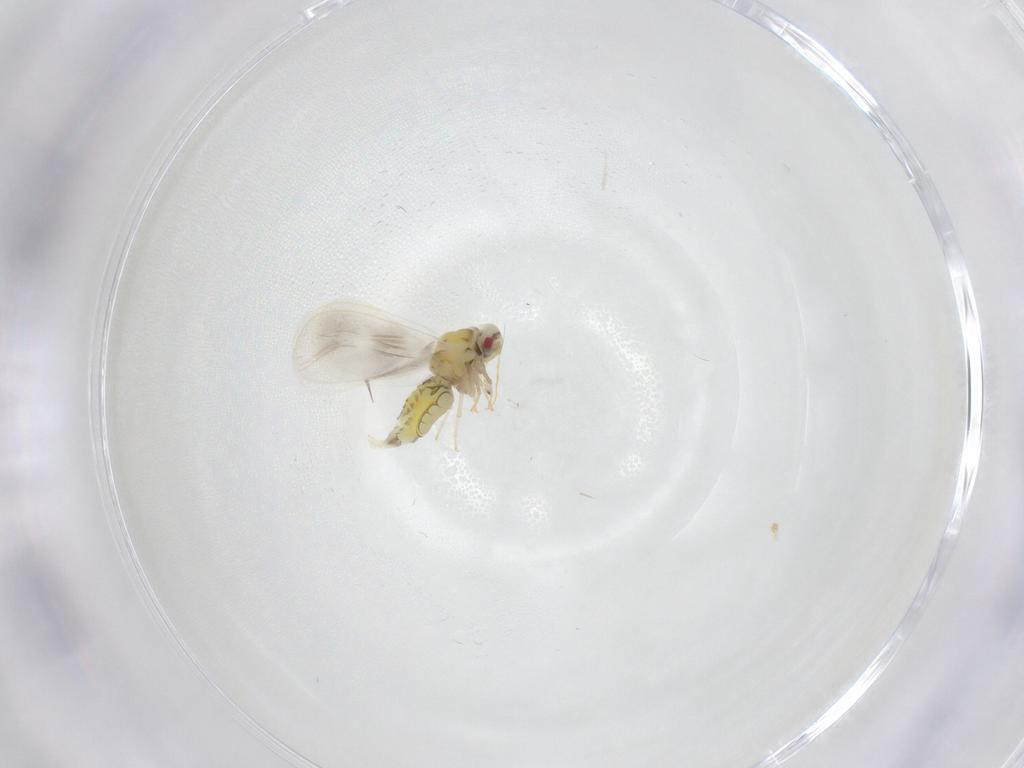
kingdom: Animalia
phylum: Arthropoda
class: Insecta
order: Hemiptera
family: Aleyrodidae
